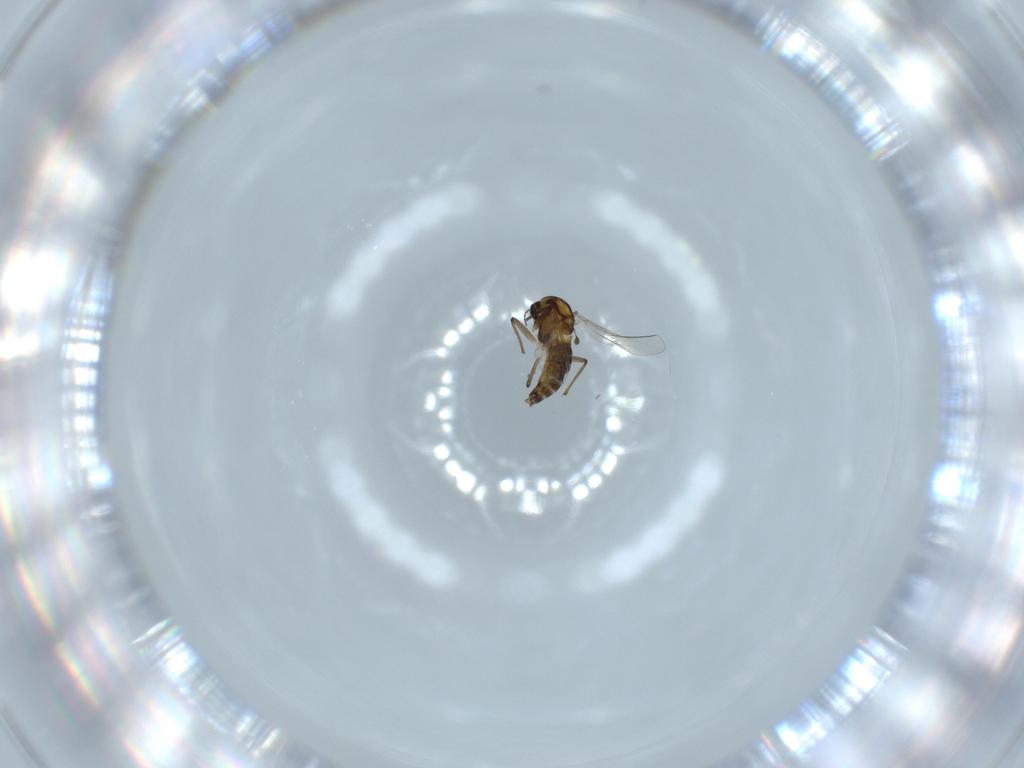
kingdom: Animalia
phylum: Arthropoda
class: Insecta
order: Diptera
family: Chironomidae
